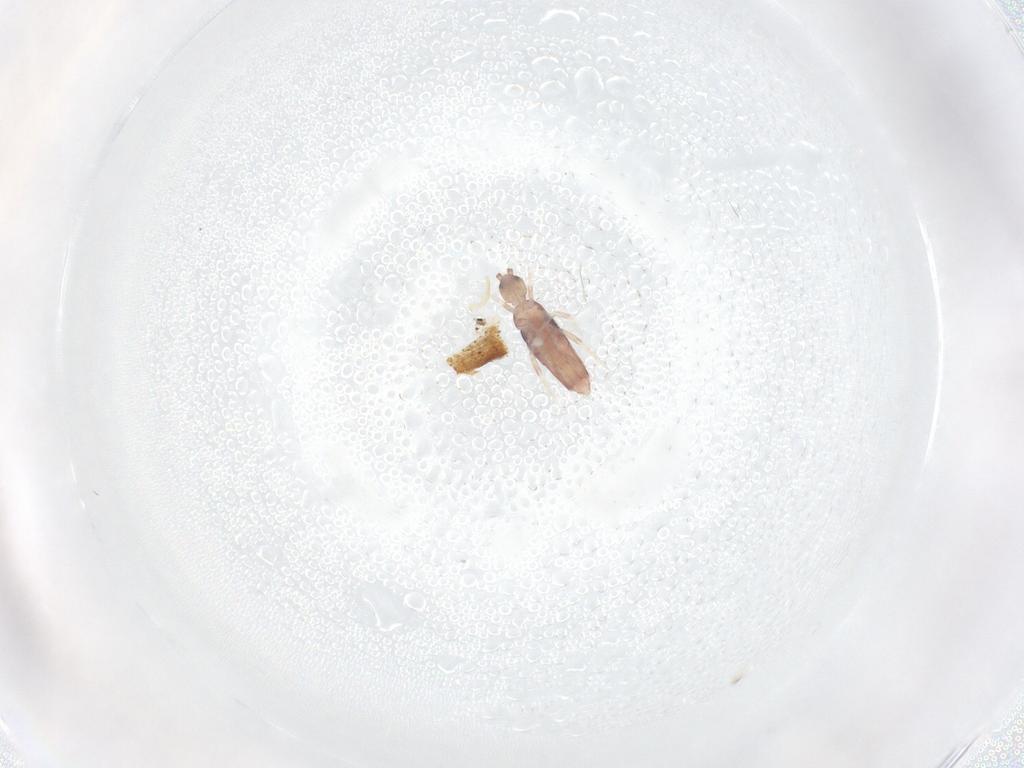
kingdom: Animalia
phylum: Arthropoda
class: Collembola
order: Entomobryomorpha
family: Entomobryidae
